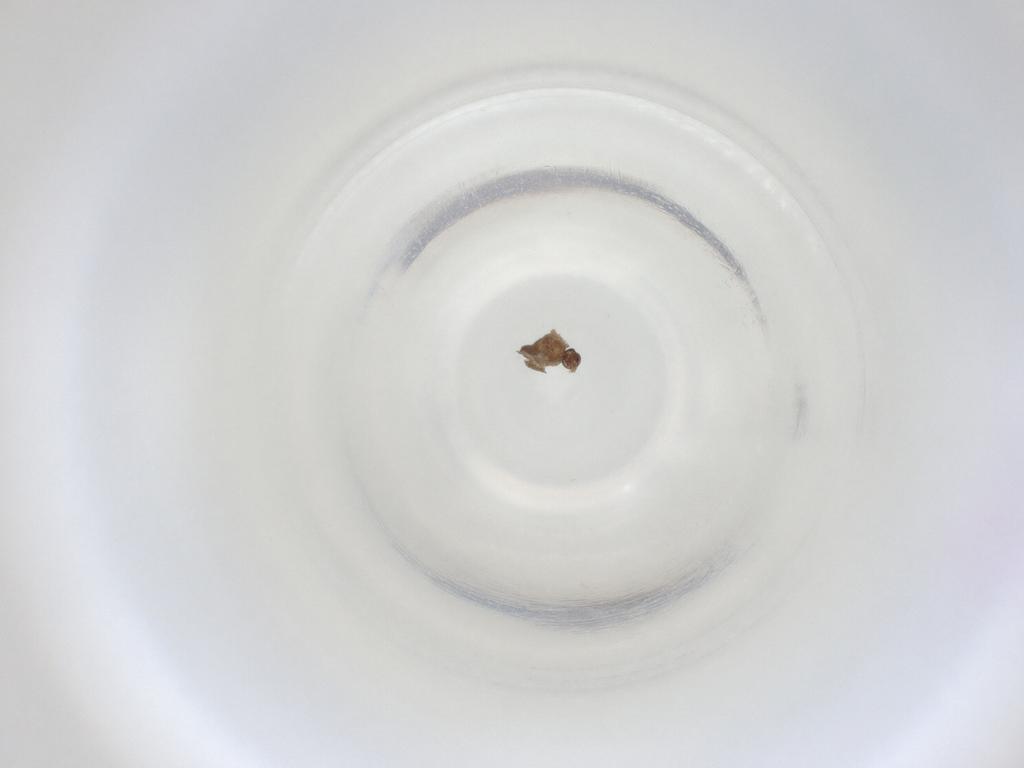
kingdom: Animalia
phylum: Arthropoda
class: Insecta
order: Diptera
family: Cecidomyiidae
